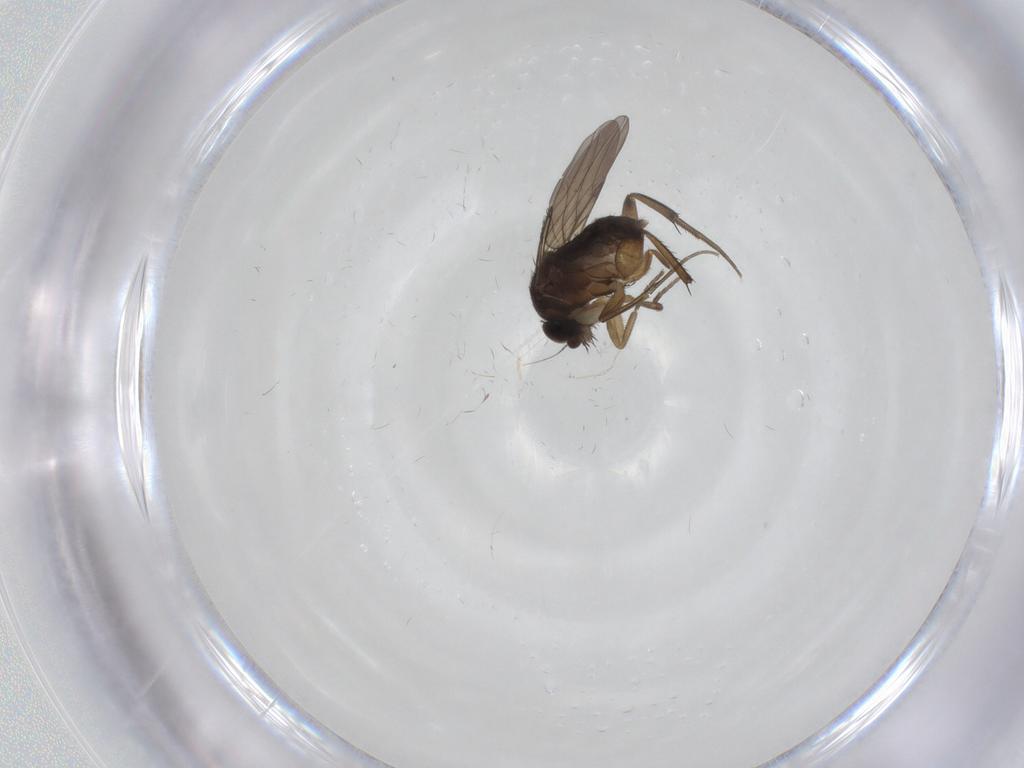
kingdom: Animalia
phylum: Arthropoda
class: Insecta
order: Diptera
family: Phoridae
